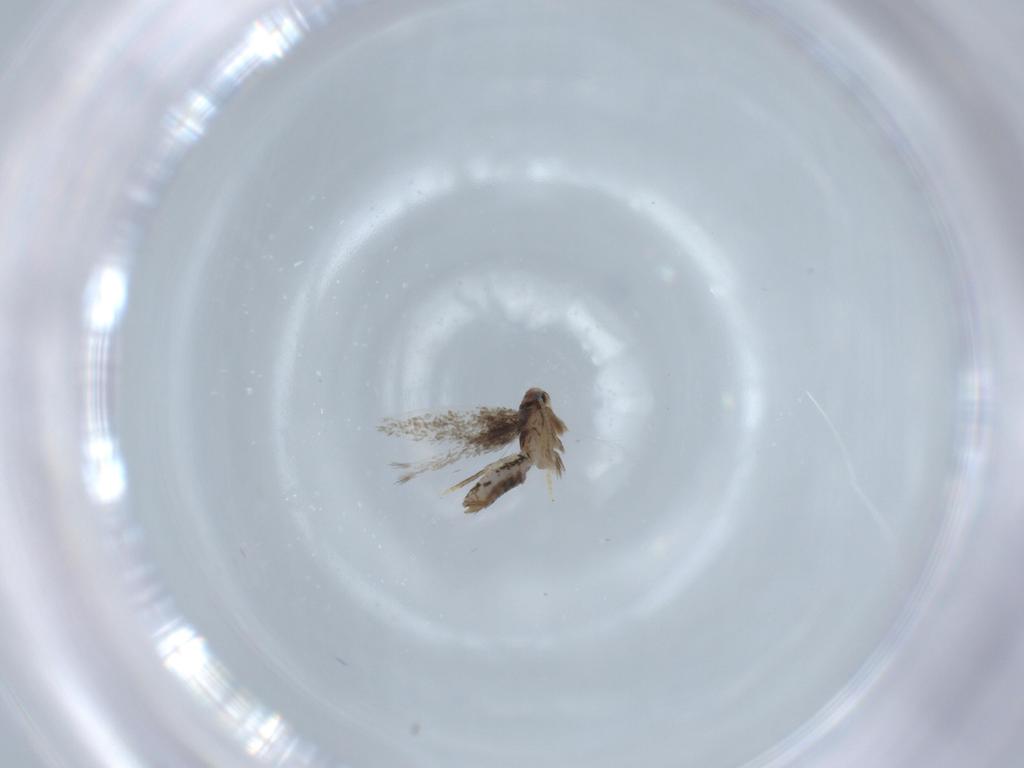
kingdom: Animalia
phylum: Arthropoda
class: Insecta
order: Lepidoptera
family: Nepticulidae
